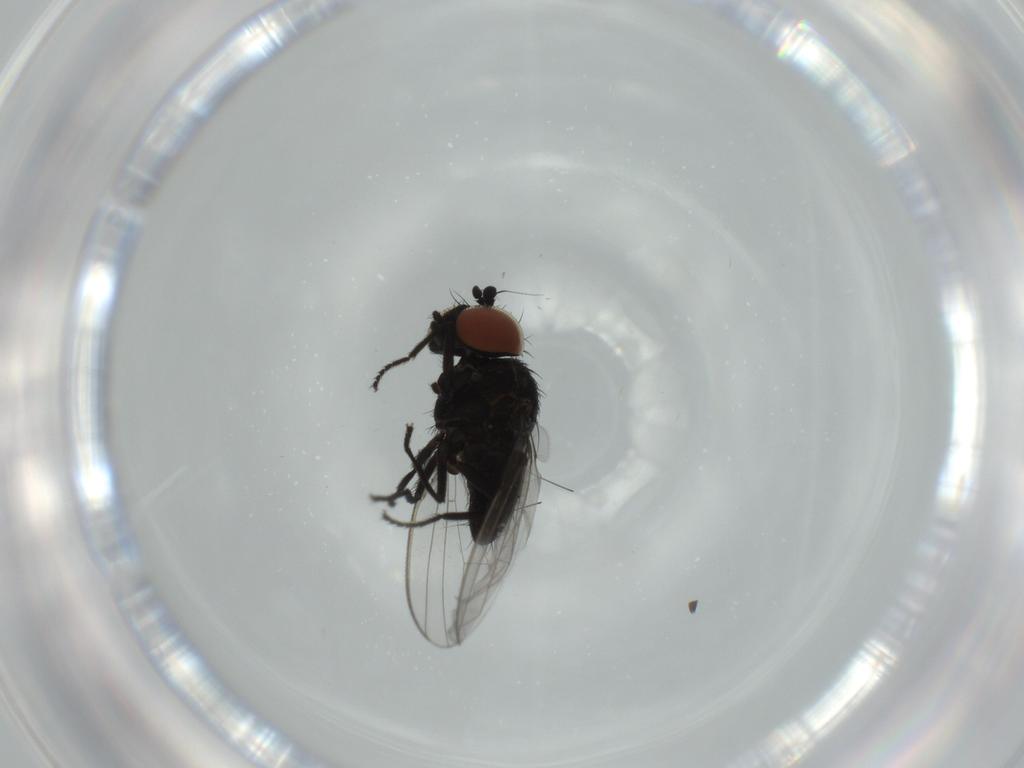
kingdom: Animalia
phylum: Arthropoda
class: Insecta
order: Diptera
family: Milichiidae
